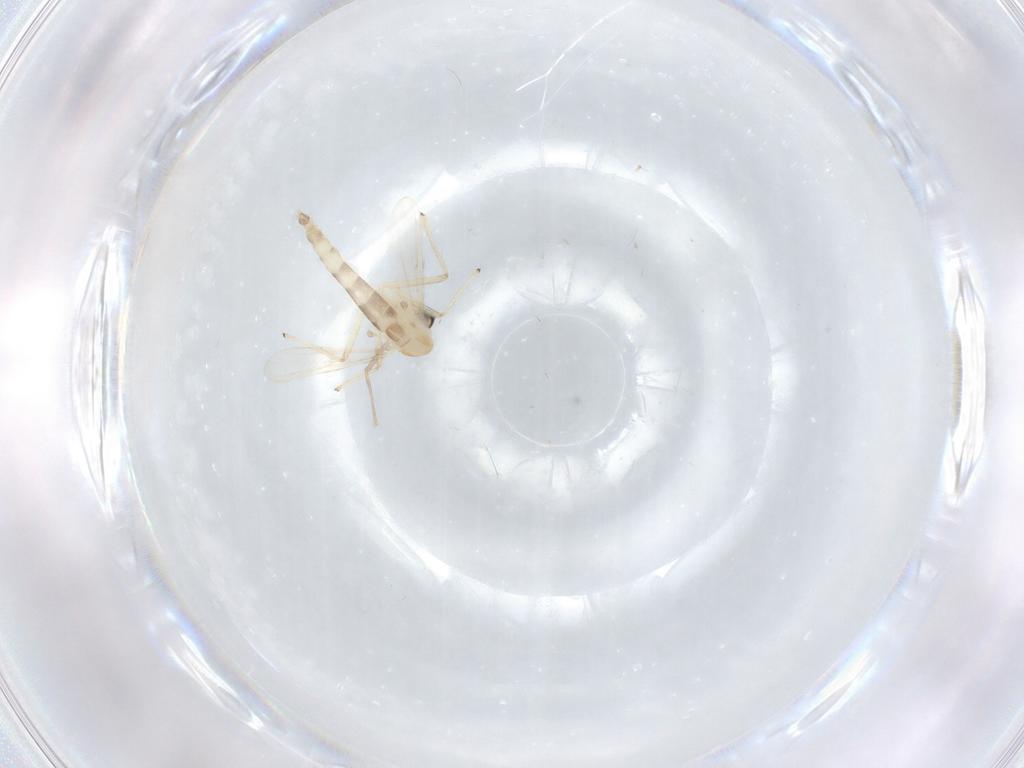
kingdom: Animalia
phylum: Arthropoda
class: Insecta
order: Diptera
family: Chironomidae
